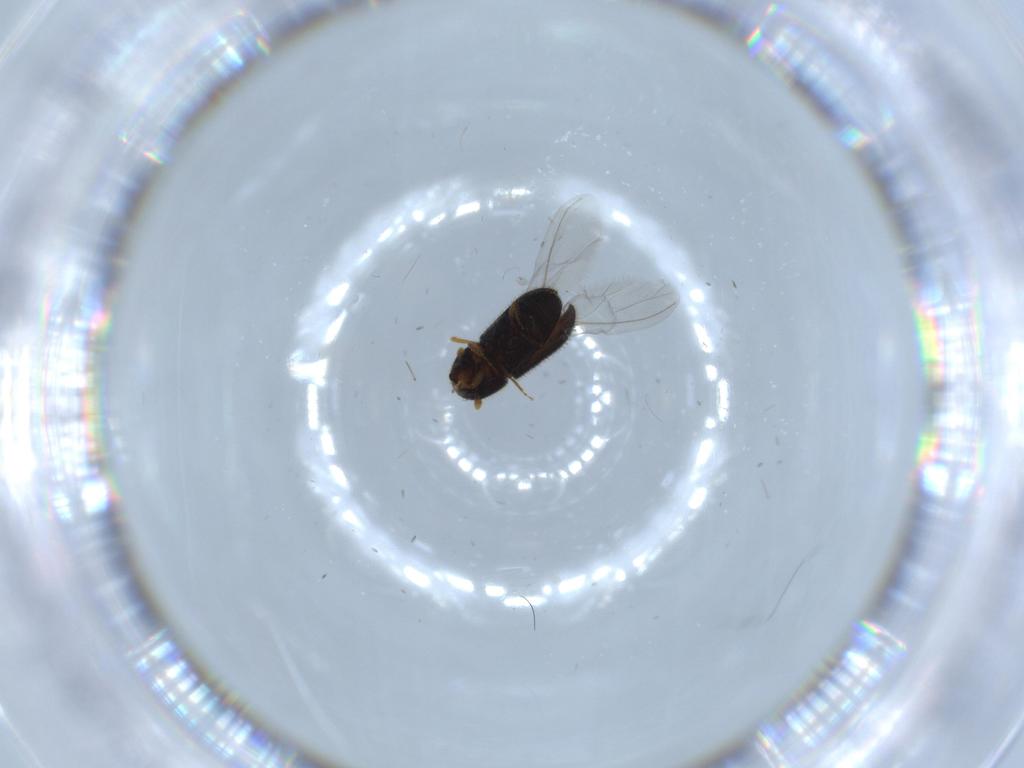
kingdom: Animalia
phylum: Arthropoda
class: Insecta
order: Coleoptera
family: Curculionidae
